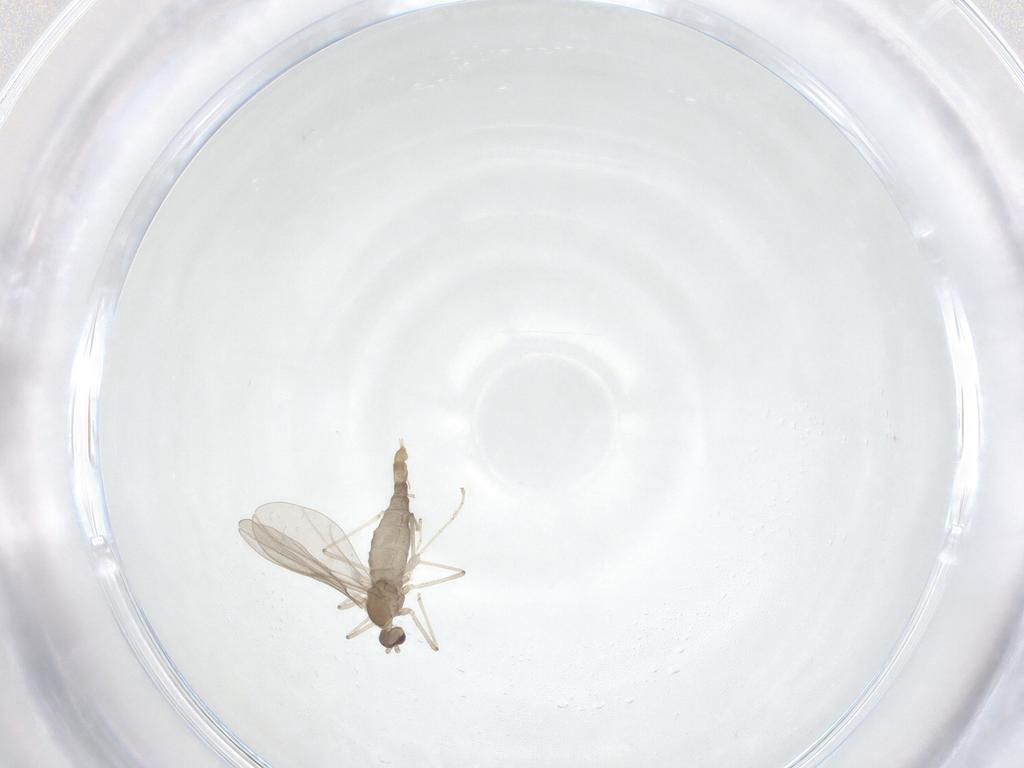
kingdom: Animalia
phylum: Arthropoda
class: Insecta
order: Diptera
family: Cecidomyiidae
